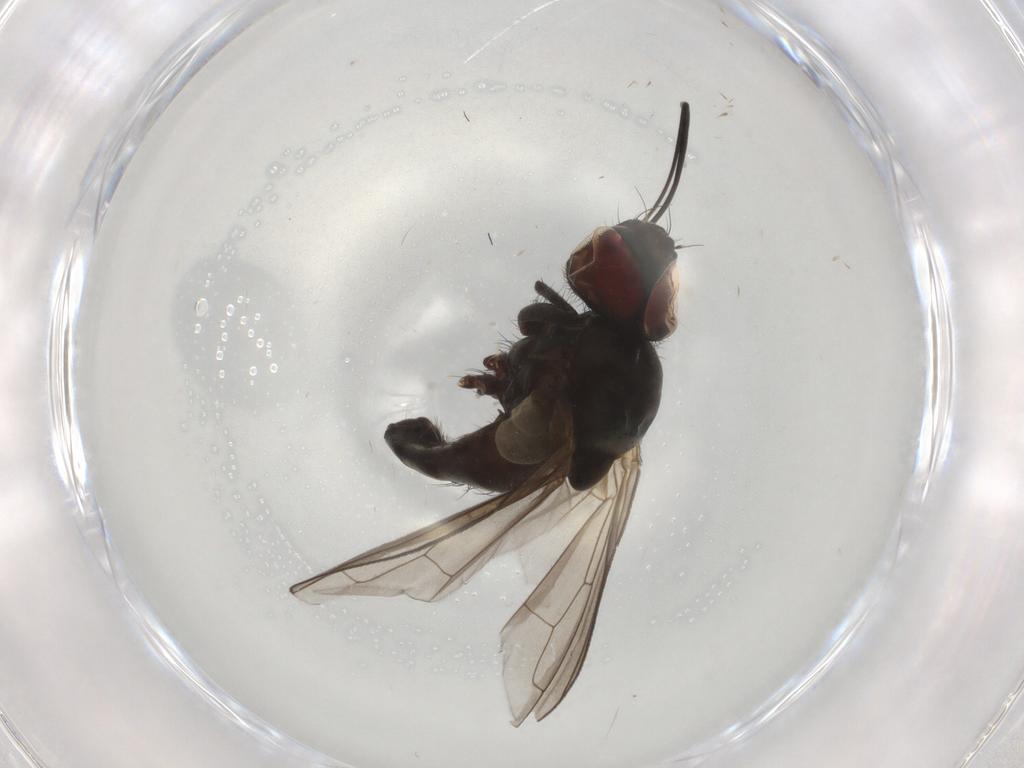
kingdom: Animalia
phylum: Arthropoda
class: Insecta
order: Diptera
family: Tachinidae
